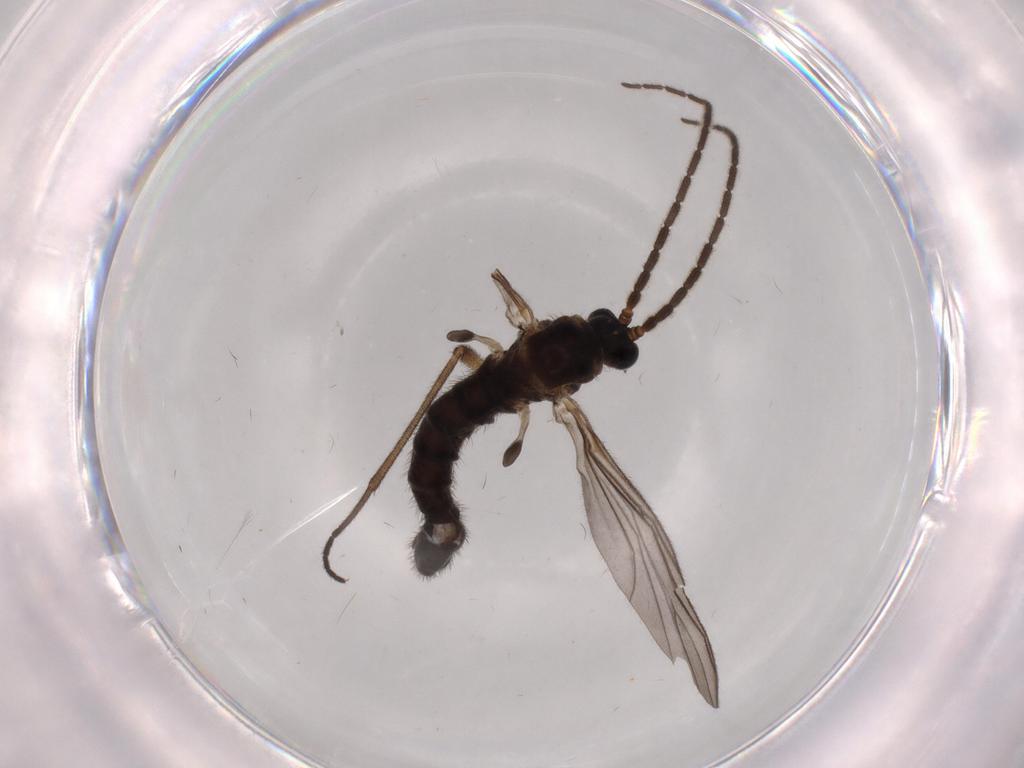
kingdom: Animalia
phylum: Arthropoda
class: Insecta
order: Diptera
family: Sciaridae
